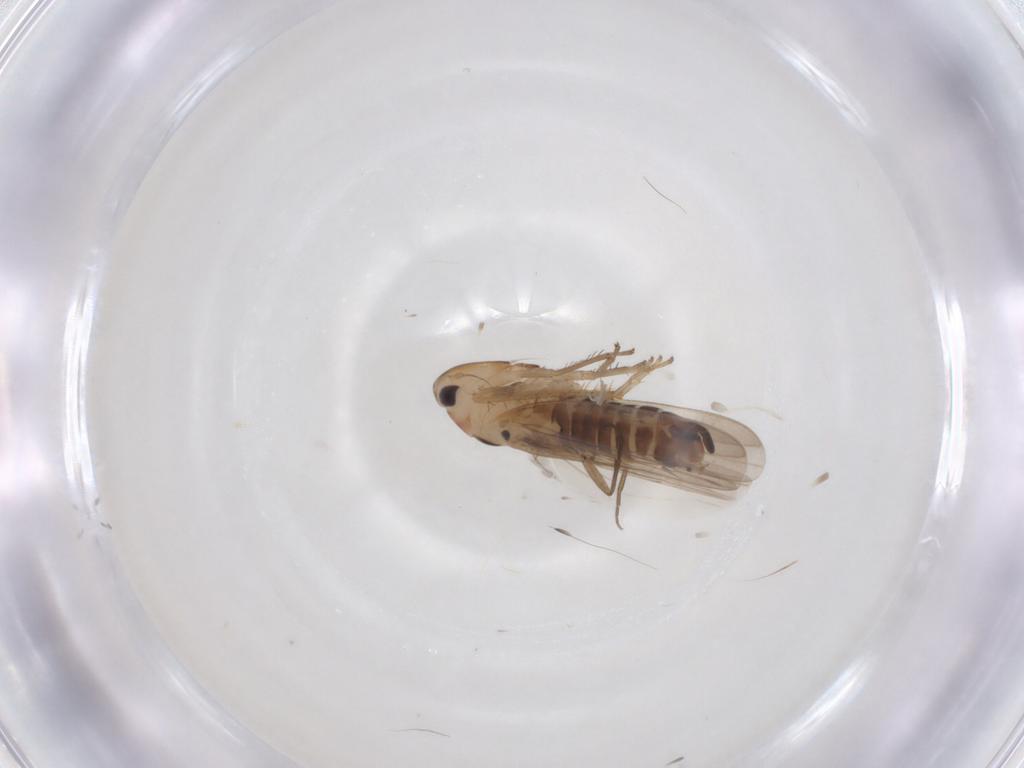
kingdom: Animalia
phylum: Arthropoda
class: Insecta
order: Hemiptera
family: Cicadellidae
